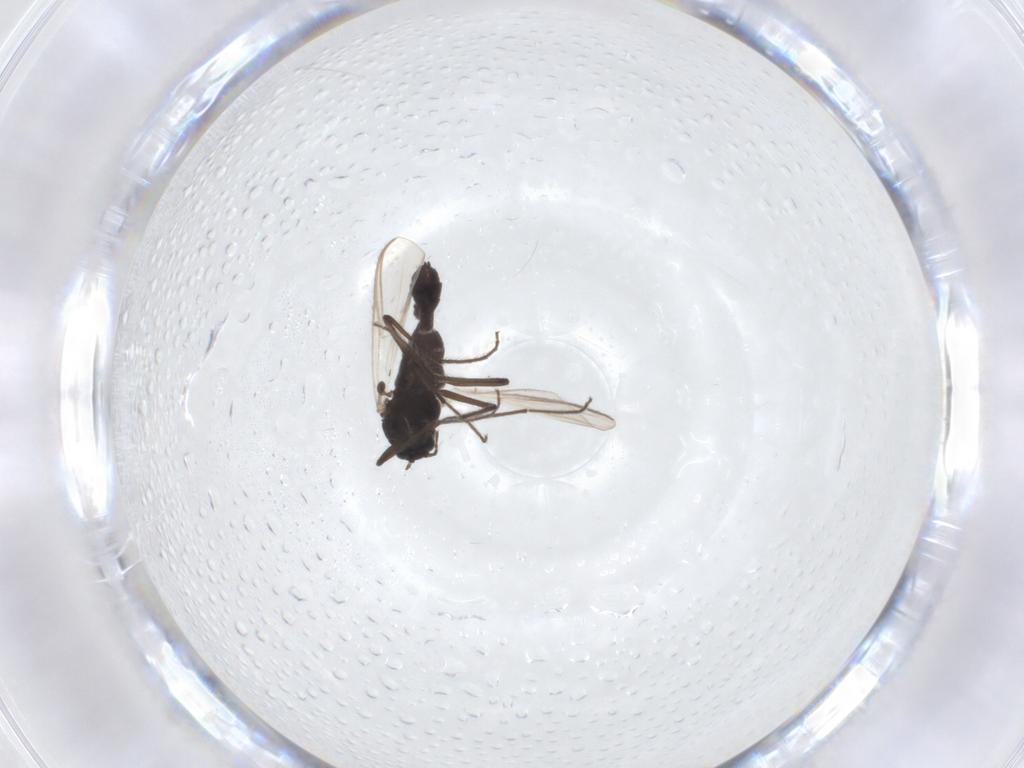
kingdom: Animalia
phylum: Arthropoda
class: Insecta
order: Diptera
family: Chironomidae
